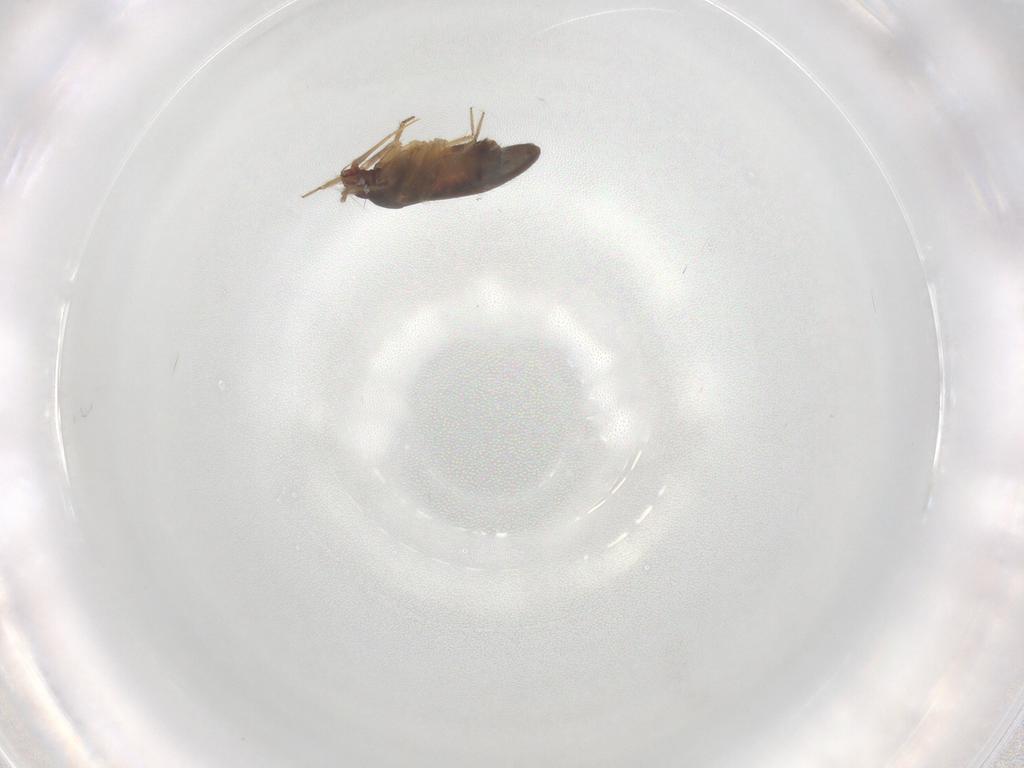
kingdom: Animalia
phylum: Arthropoda
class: Insecta
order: Hemiptera
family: Ceratocombidae
